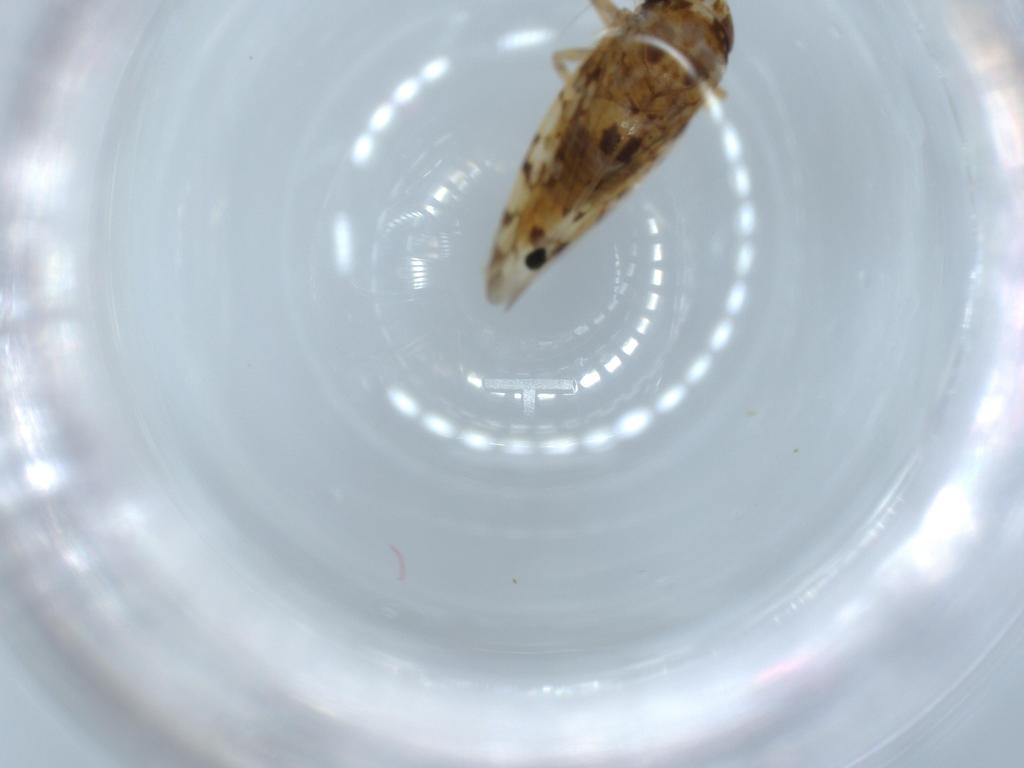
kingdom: Animalia
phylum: Arthropoda
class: Insecta
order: Hemiptera
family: Cicadellidae
